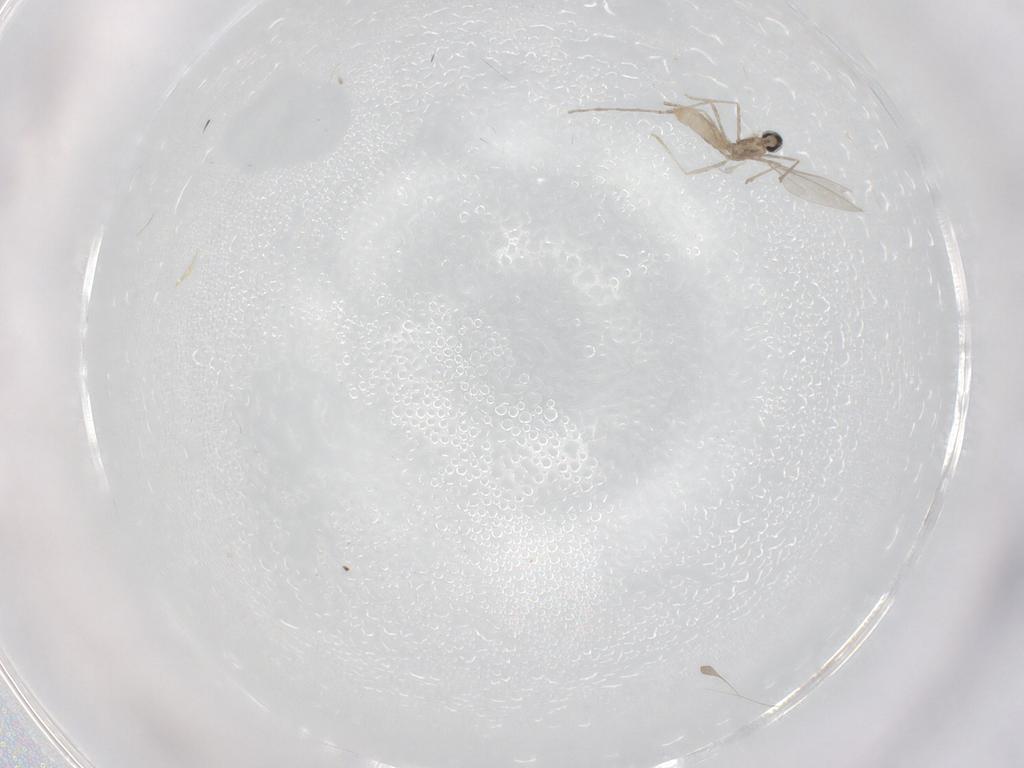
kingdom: Animalia
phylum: Arthropoda
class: Insecta
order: Diptera
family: Cecidomyiidae
